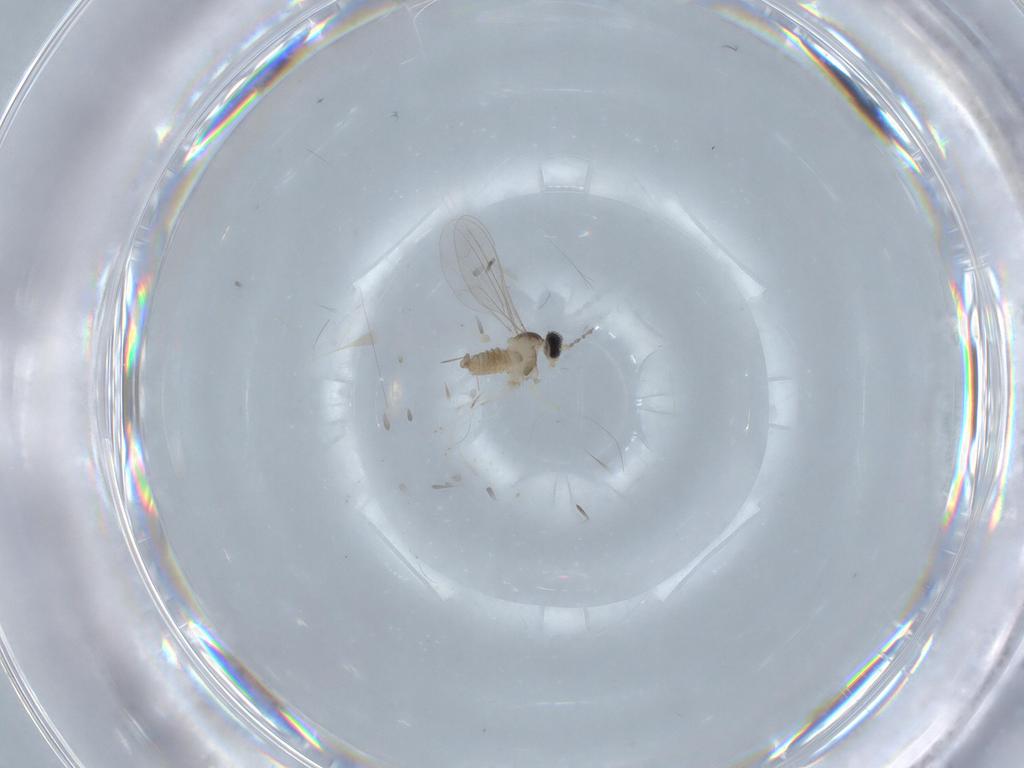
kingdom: Animalia
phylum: Arthropoda
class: Insecta
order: Diptera
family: Cecidomyiidae
